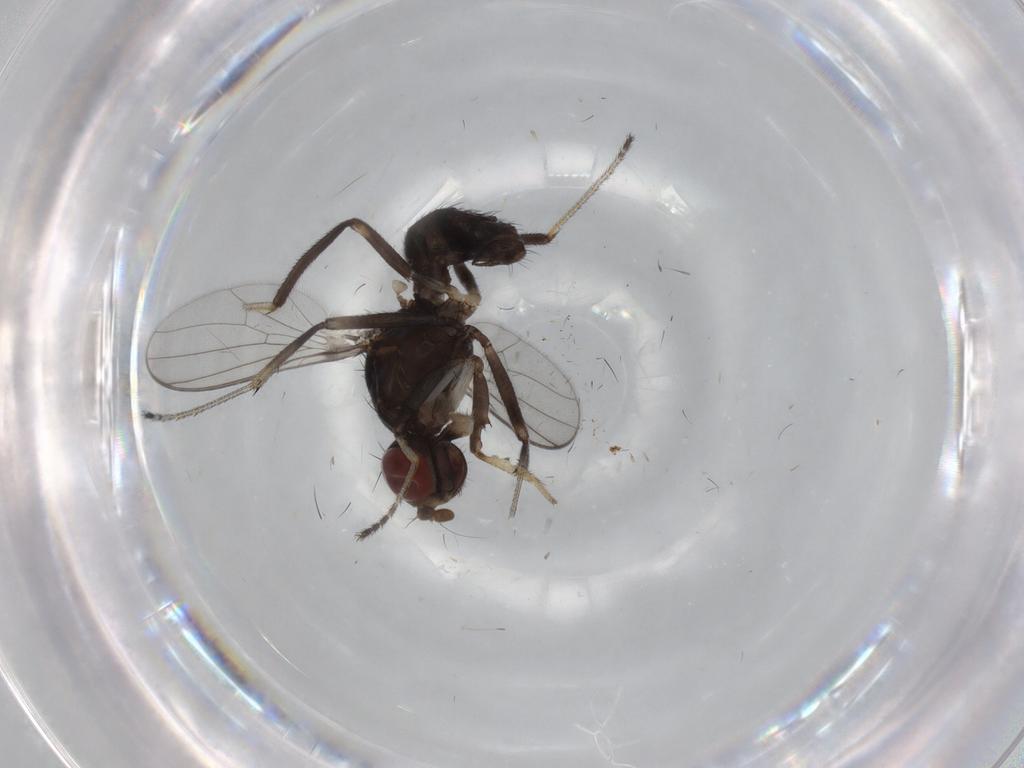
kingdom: Animalia
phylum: Arthropoda
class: Insecta
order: Diptera
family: Sepsidae
